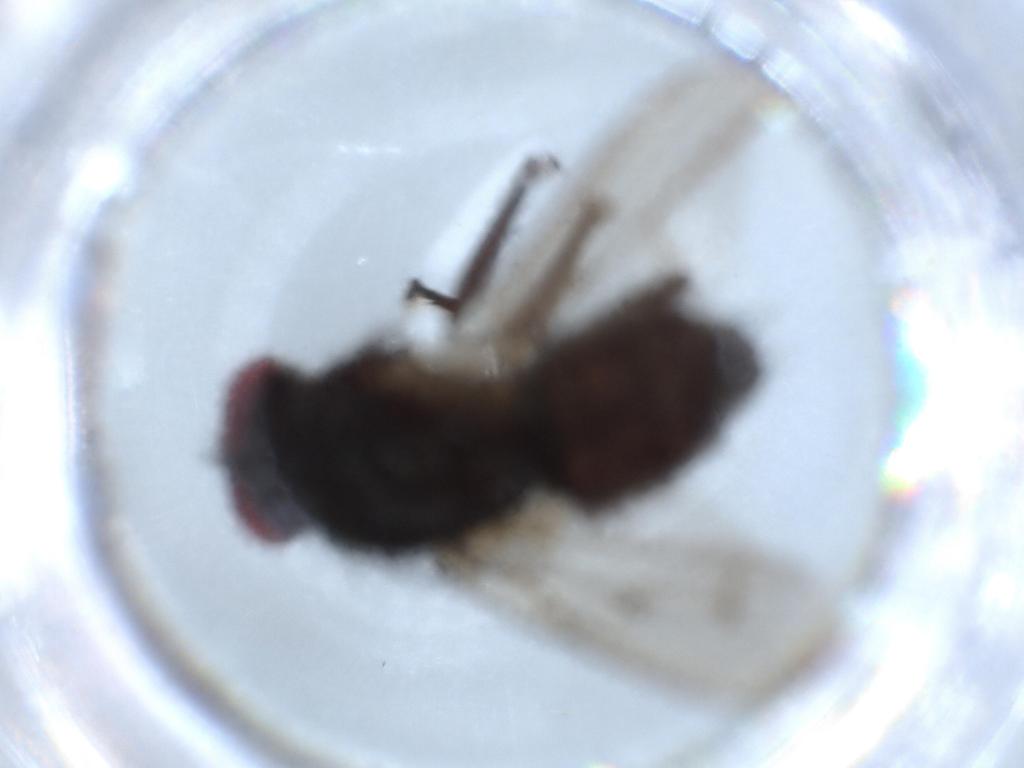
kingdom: Animalia
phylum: Arthropoda
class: Insecta
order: Diptera
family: Muscidae
